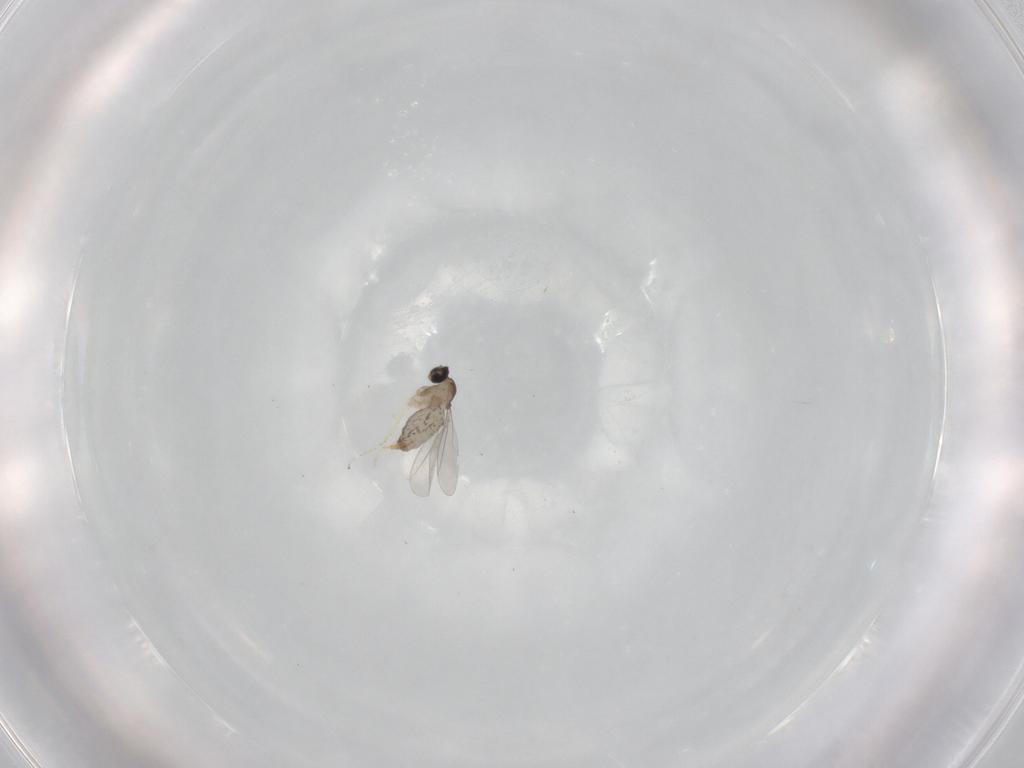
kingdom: Animalia
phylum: Arthropoda
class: Insecta
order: Diptera
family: Cecidomyiidae
